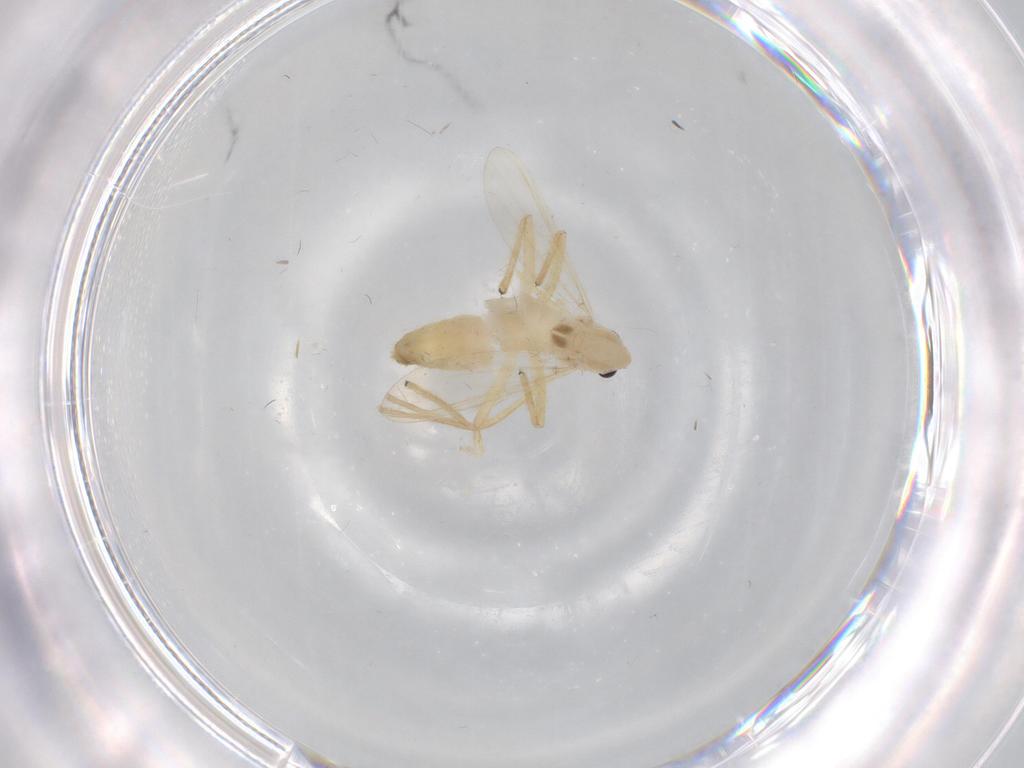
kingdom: Animalia
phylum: Arthropoda
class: Insecta
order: Diptera
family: Chironomidae
